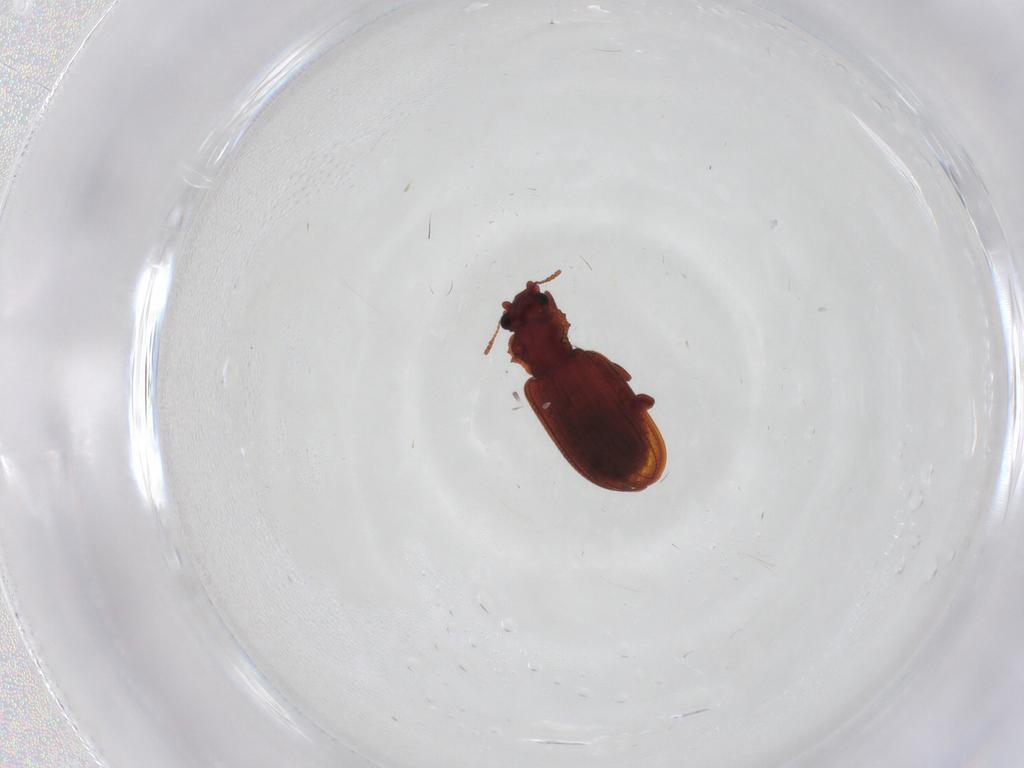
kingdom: Animalia
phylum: Arthropoda
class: Insecta
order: Coleoptera
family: Latridiidae
